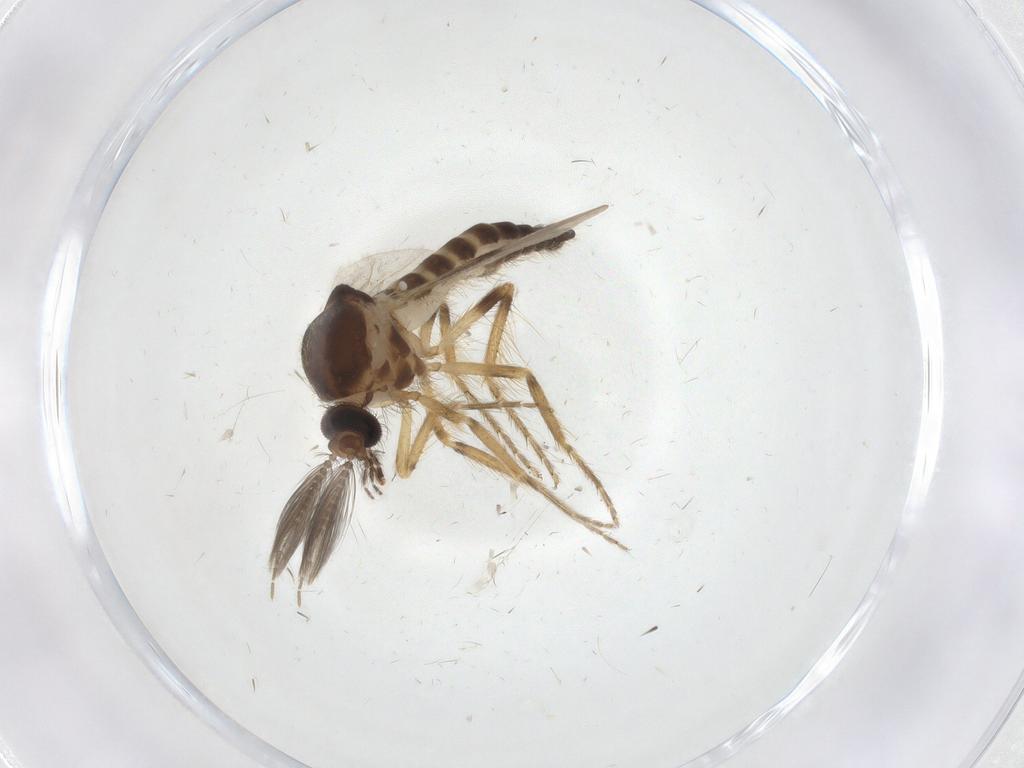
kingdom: Animalia
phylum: Arthropoda
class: Insecta
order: Diptera
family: Ceratopogonidae
